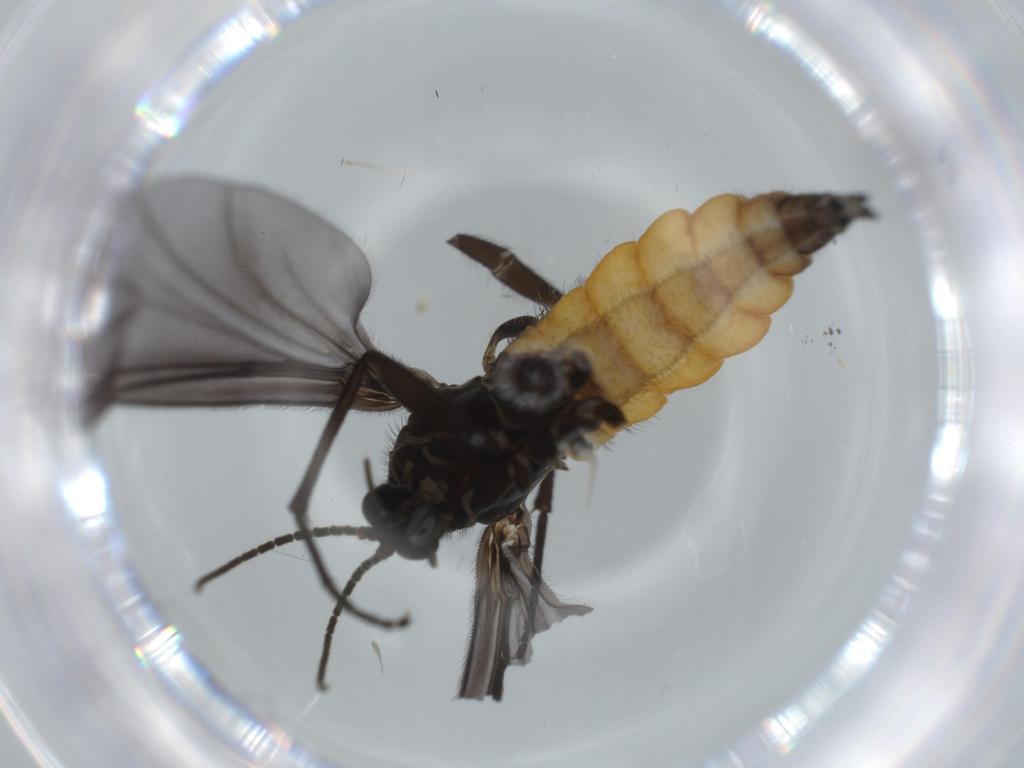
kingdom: Animalia
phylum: Arthropoda
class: Insecta
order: Diptera
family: Sciaridae
